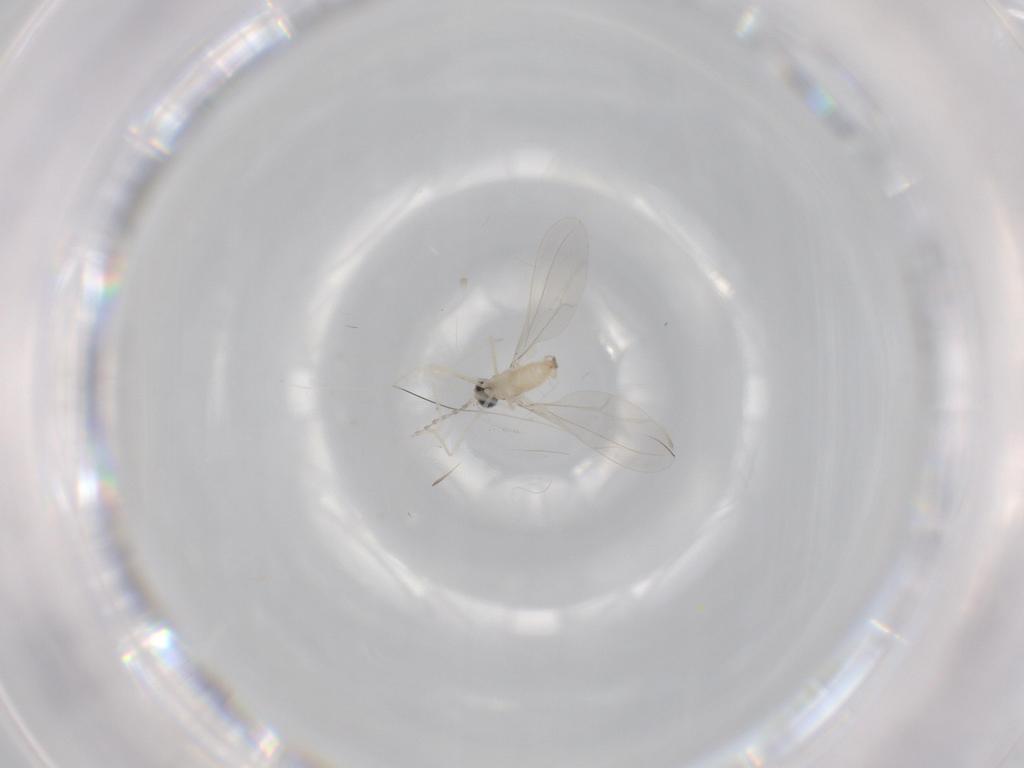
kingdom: Animalia
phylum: Arthropoda
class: Insecta
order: Diptera
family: Cecidomyiidae
